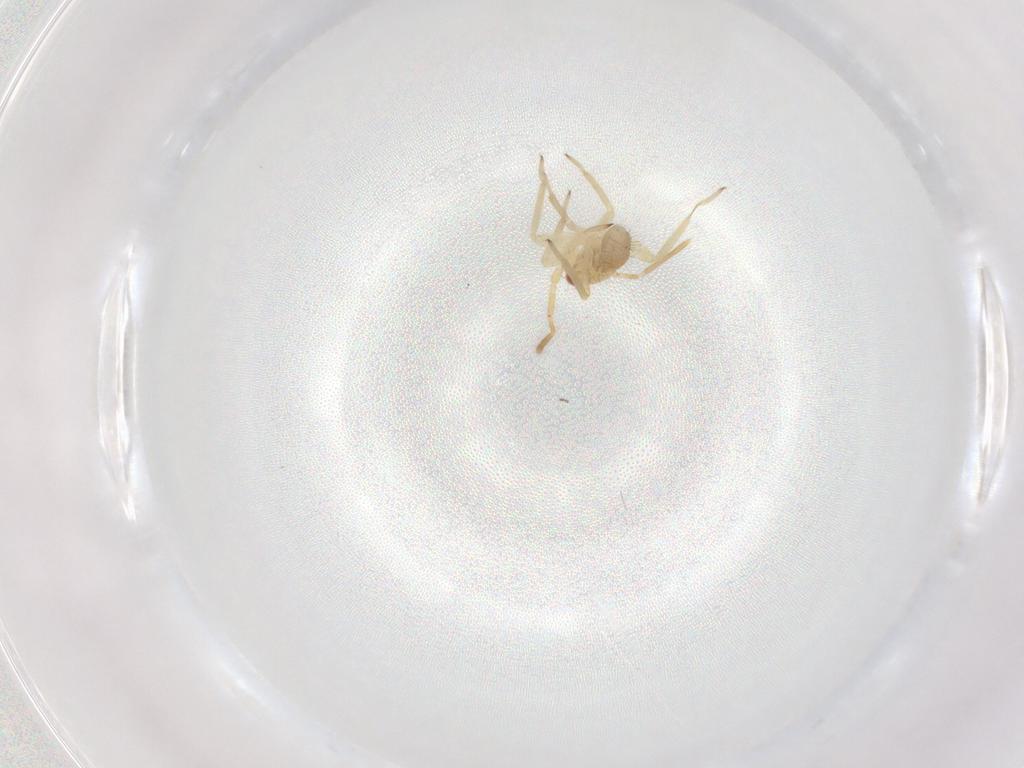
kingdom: Animalia
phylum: Arthropoda
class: Insecta
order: Hemiptera
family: Miridae
